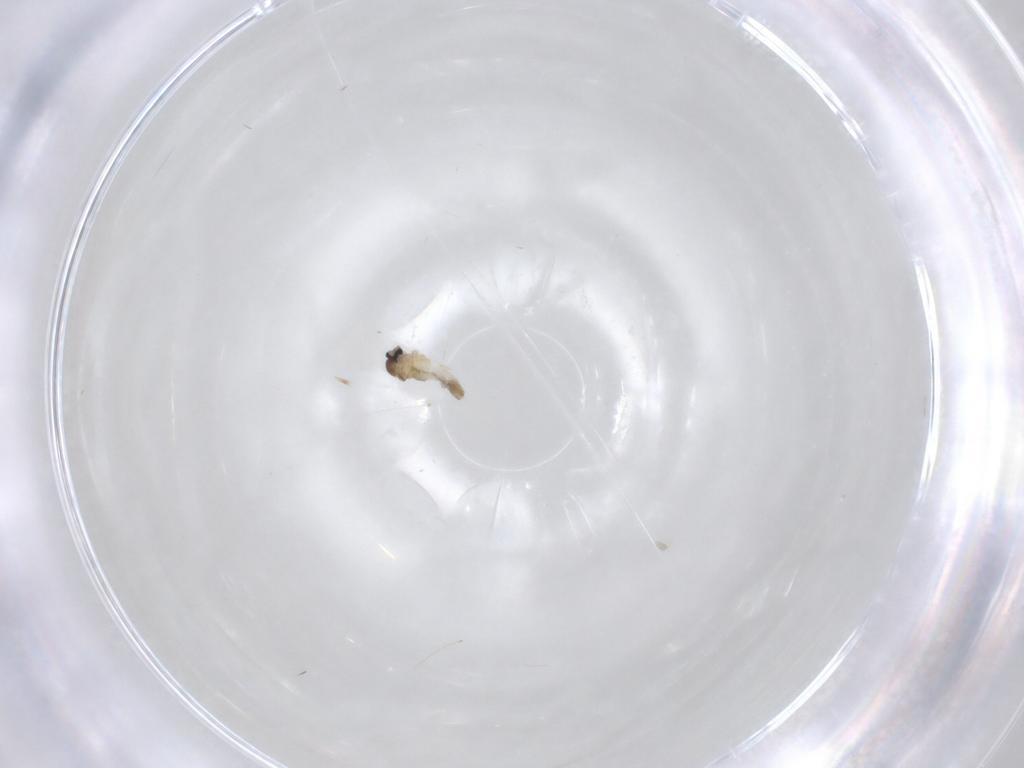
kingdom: Animalia
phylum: Arthropoda
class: Insecta
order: Diptera
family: Cecidomyiidae
